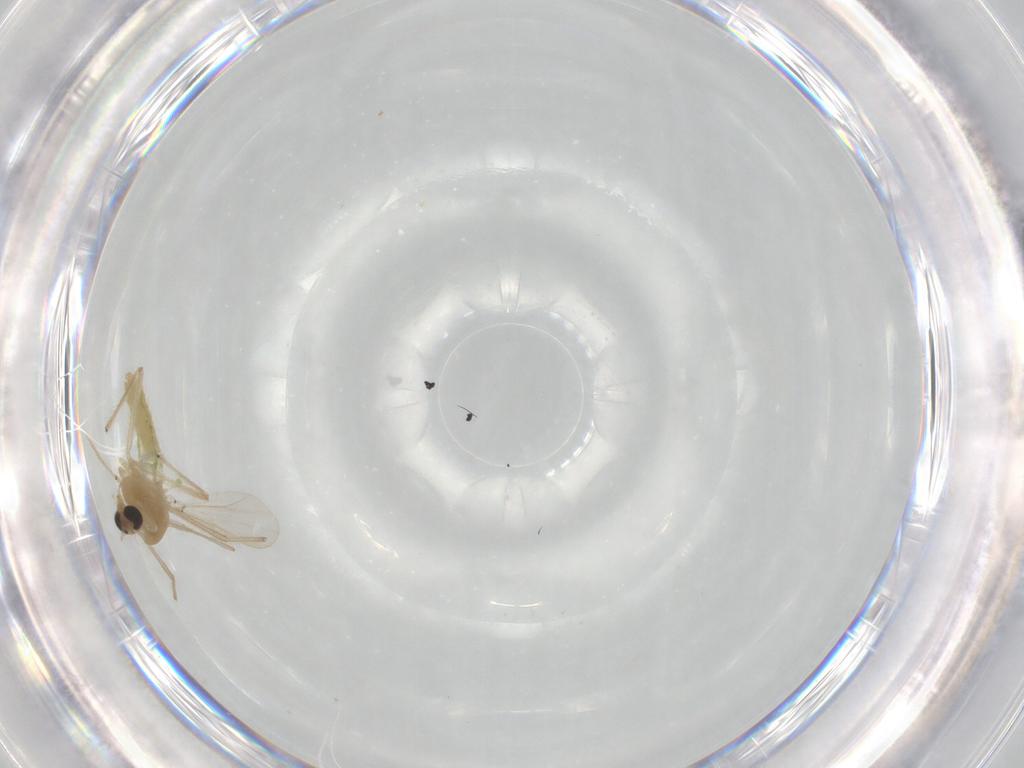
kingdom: Animalia
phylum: Arthropoda
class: Insecta
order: Diptera
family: Chironomidae
